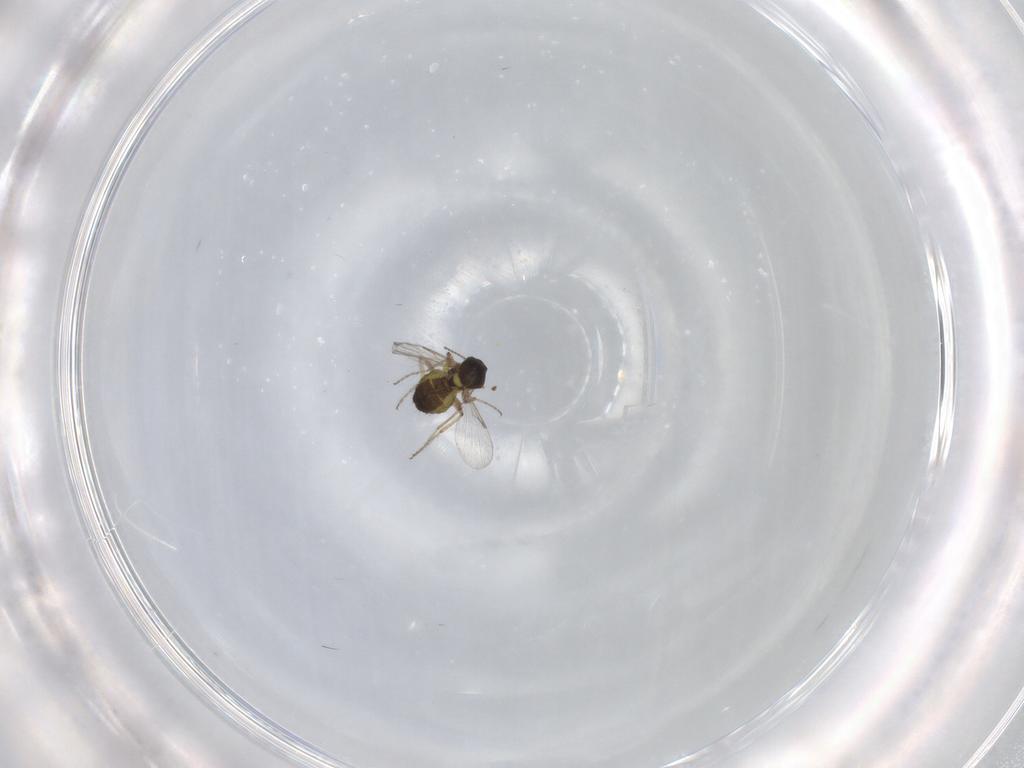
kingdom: Animalia
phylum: Arthropoda
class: Insecta
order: Diptera
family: Ceratopogonidae
